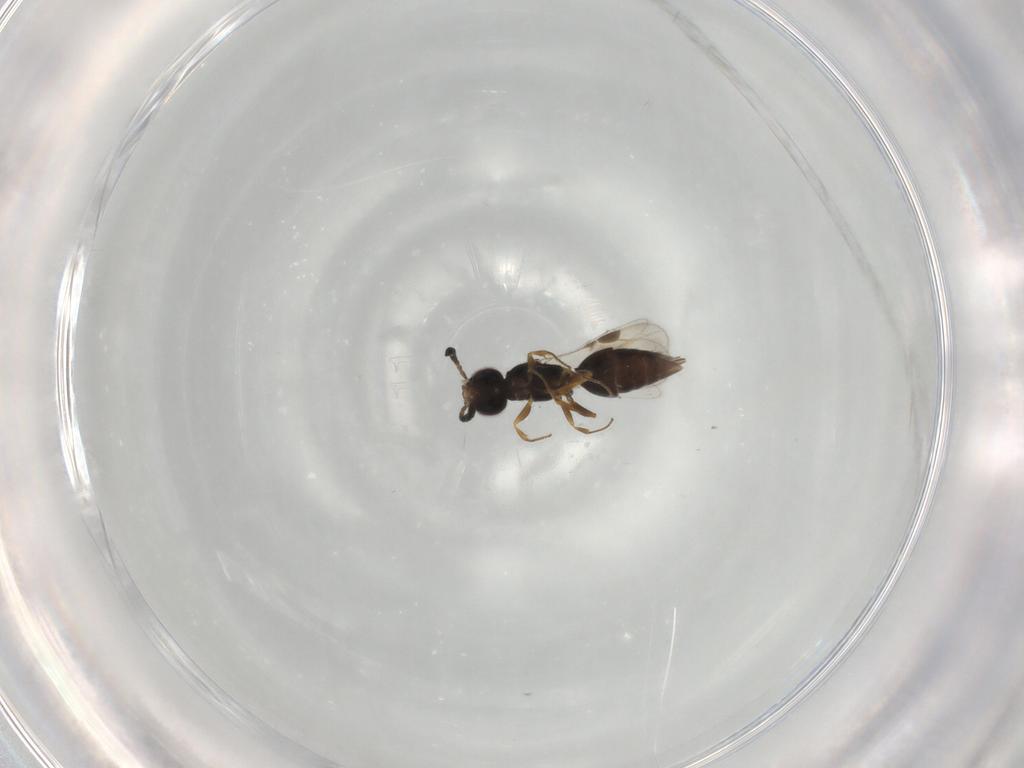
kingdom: Animalia
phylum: Arthropoda
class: Insecta
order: Hymenoptera
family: Megaspilidae
